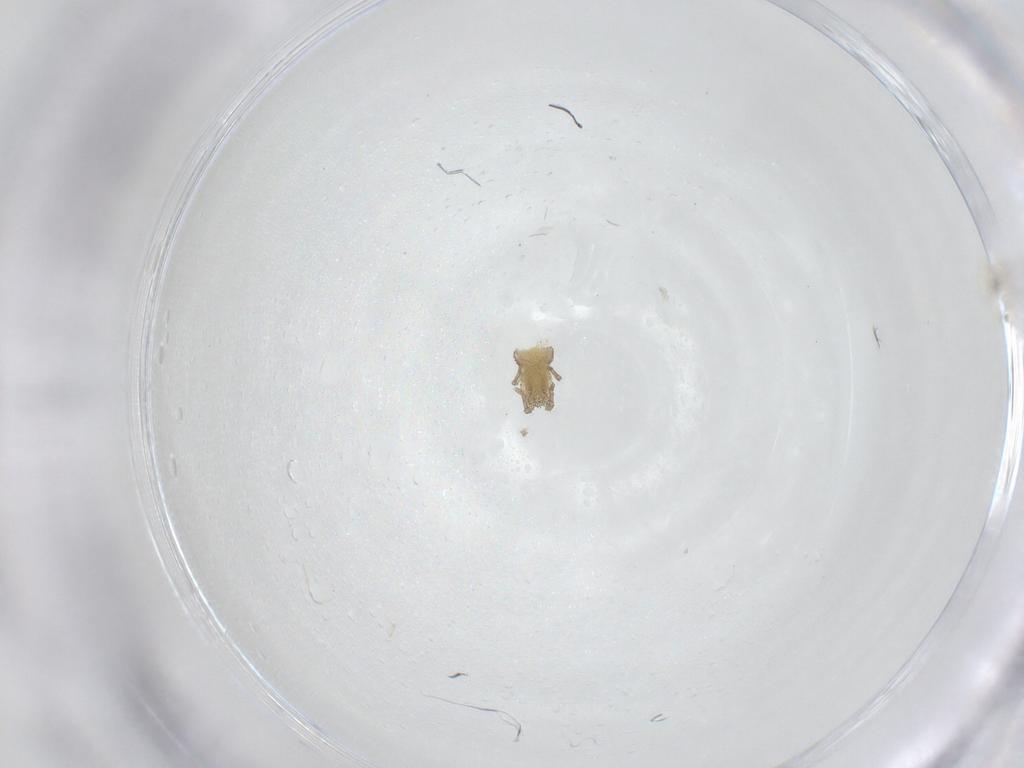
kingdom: Animalia
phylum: Arthropoda
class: Insecta
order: Diptera
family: Ceratopogonidae
